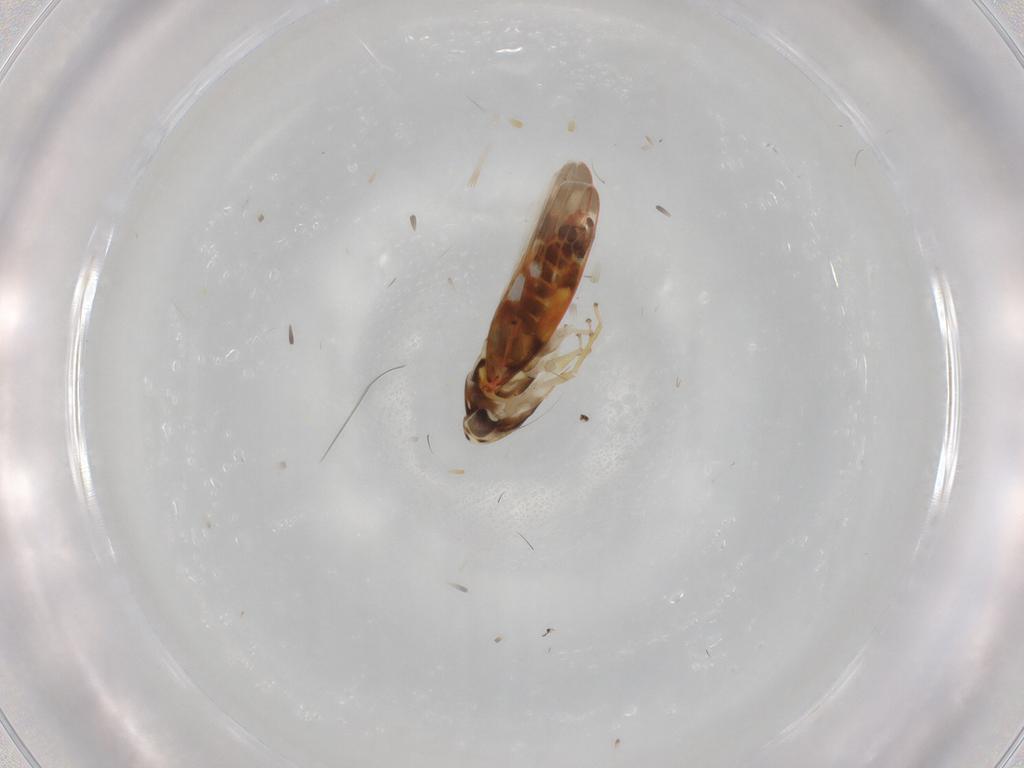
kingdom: Animalia
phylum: Arthropoda
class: Insecta
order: Hemiptera
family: Cicadellidae
